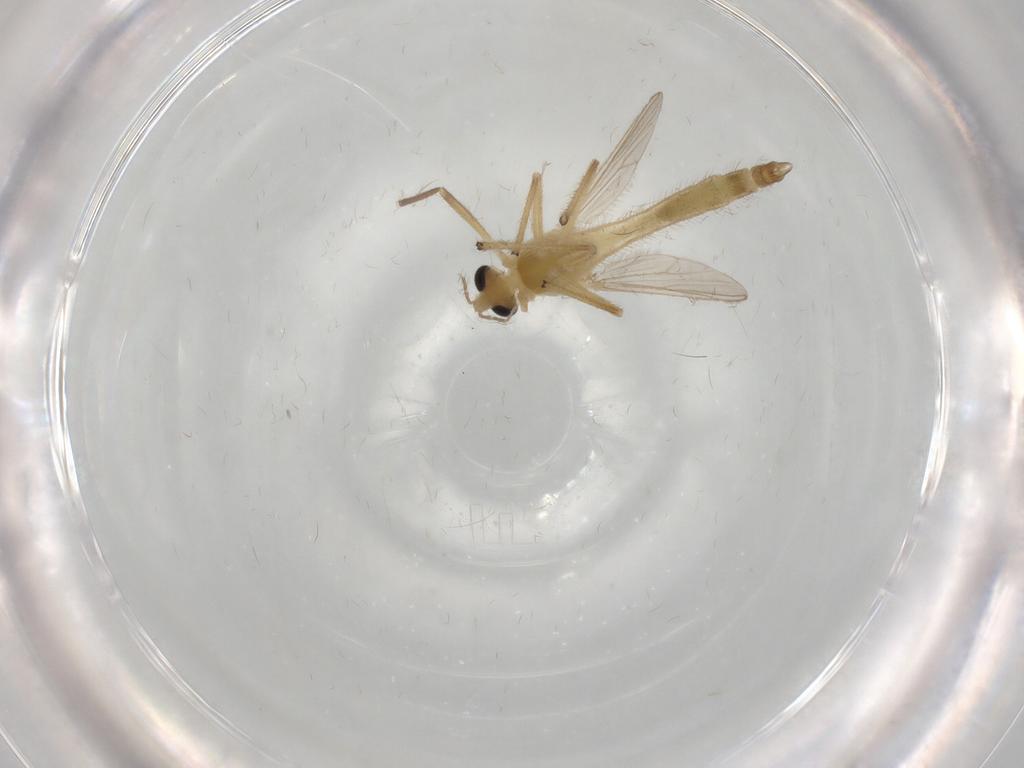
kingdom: Animalia
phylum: Arthropoda
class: Insecta
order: Diptera
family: Chironomidae
